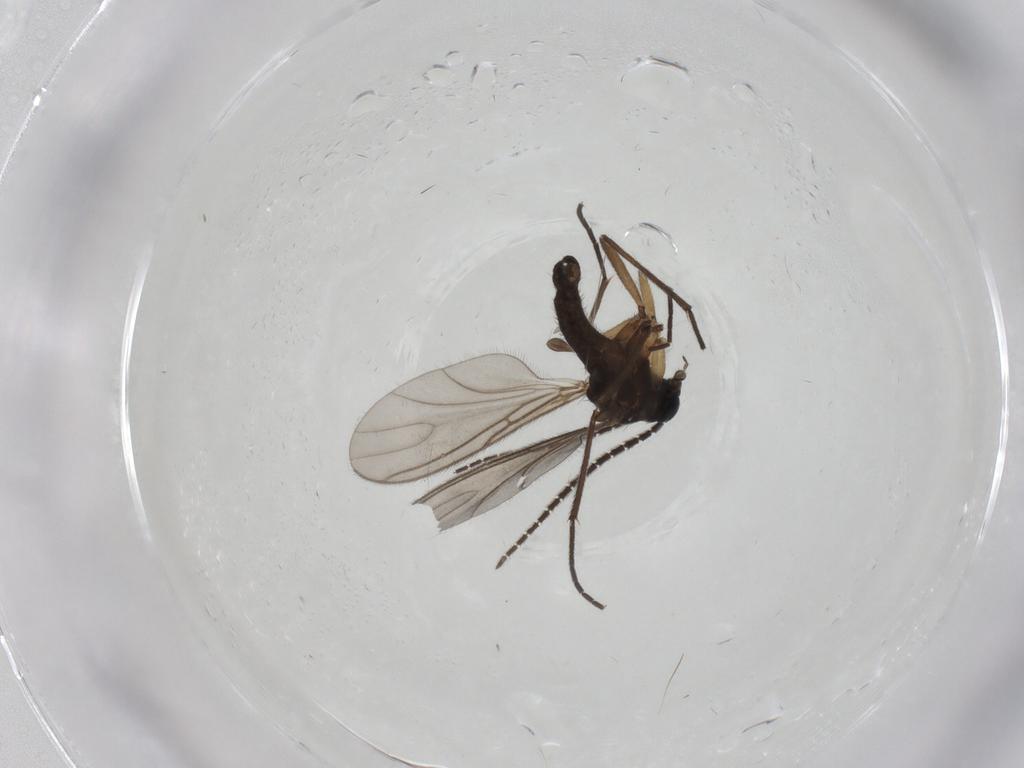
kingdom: Animalia
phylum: Arthropoda
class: Insecta
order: Diptera
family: Sciaridae
